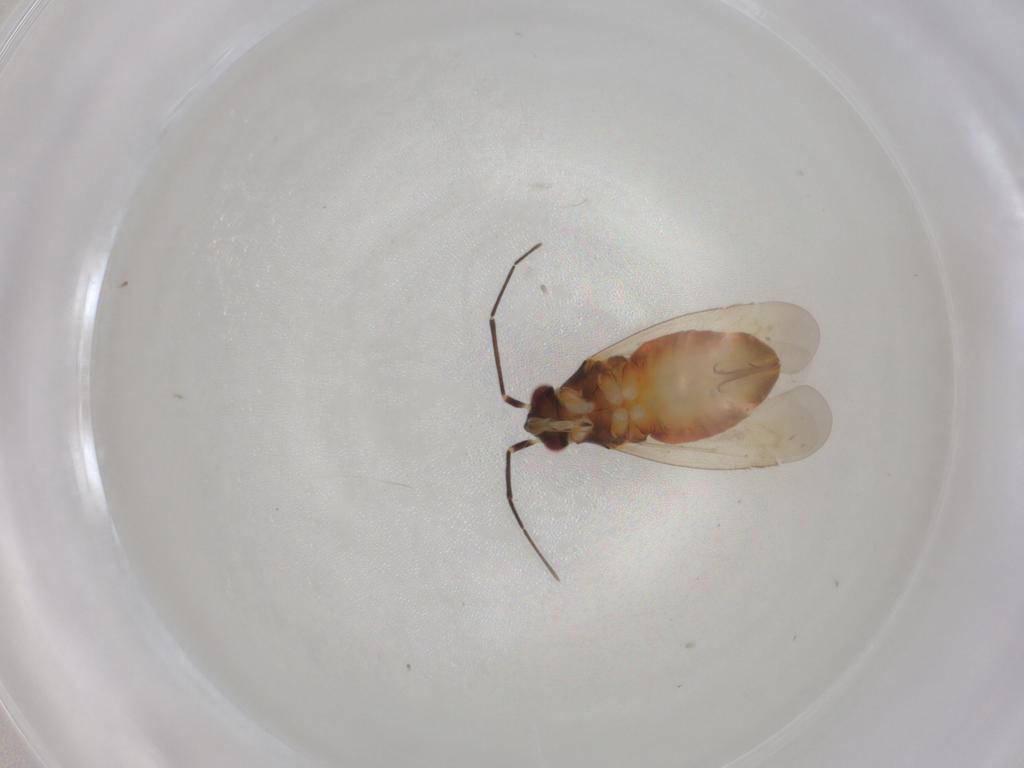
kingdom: Animalia
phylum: Arthropoda
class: Insecta
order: Hemiptera
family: Miridae
